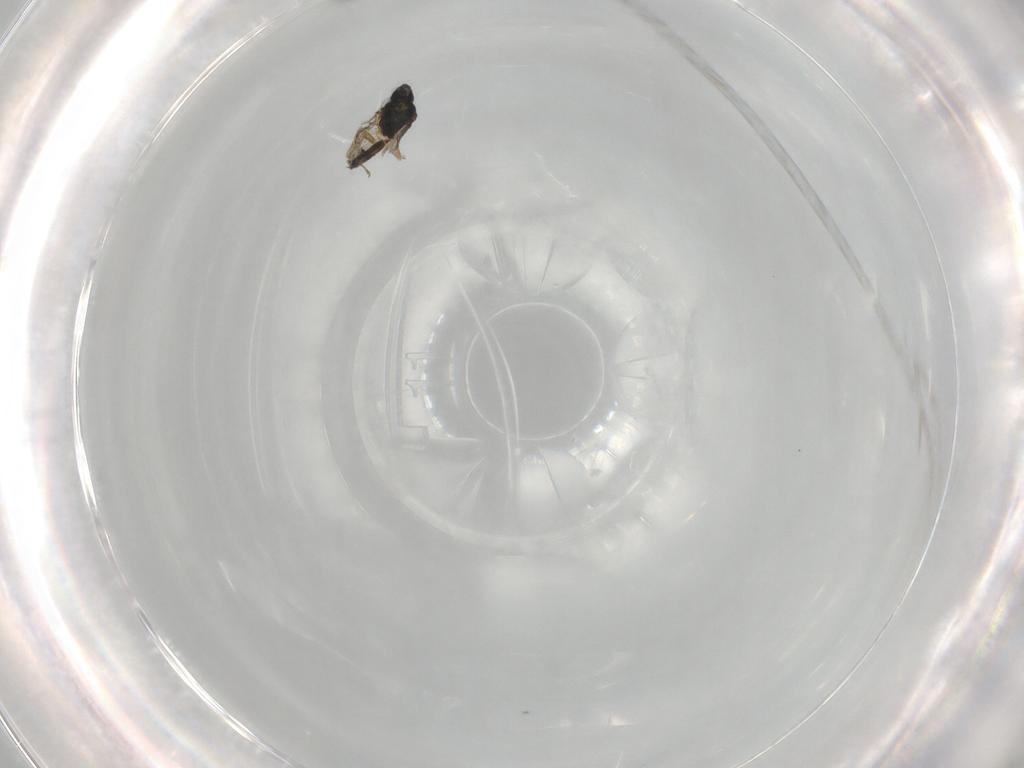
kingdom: Animalia
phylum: Arthropoda
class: Insecta
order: Hymenoptera
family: Eulophidae
